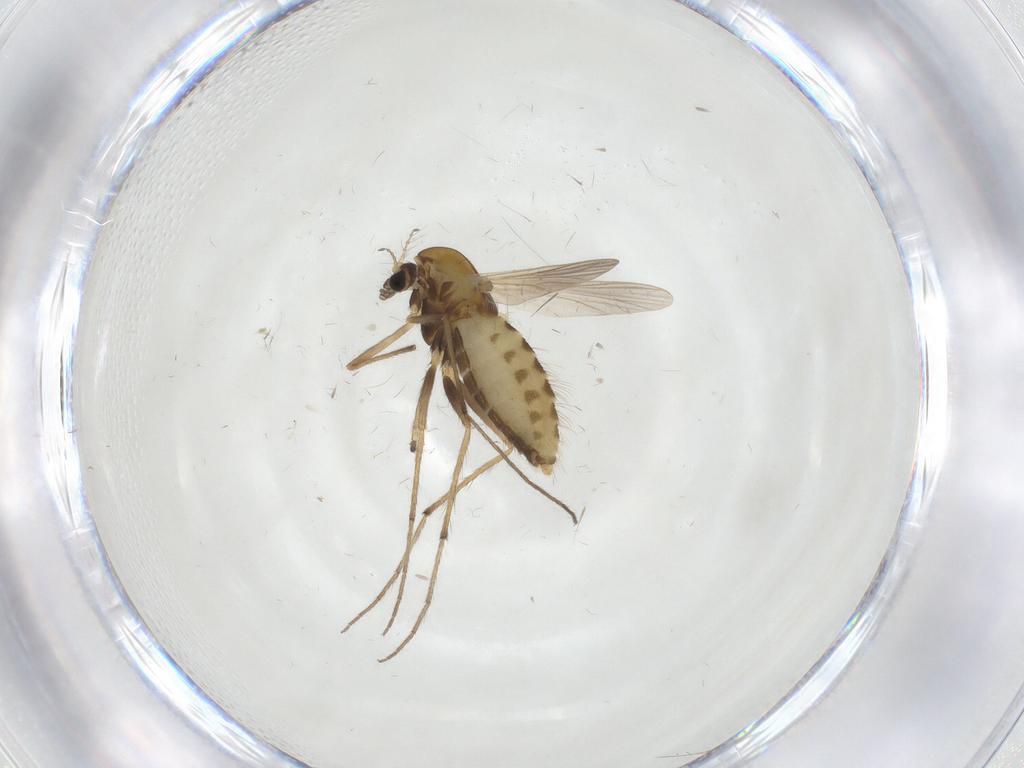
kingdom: Animalia
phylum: Arthropoda
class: Insecta
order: Diptera
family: Chironomidae
